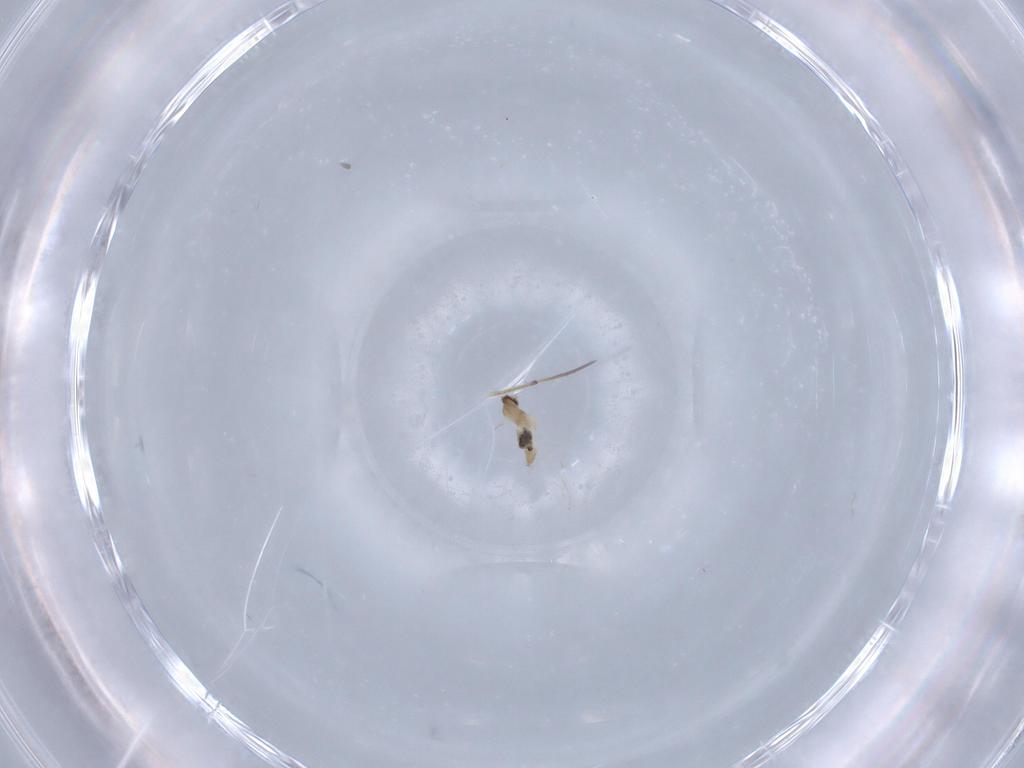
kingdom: Animalia
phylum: Arthropoda
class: Insecta
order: Diptera
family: Cecidomyiidae
